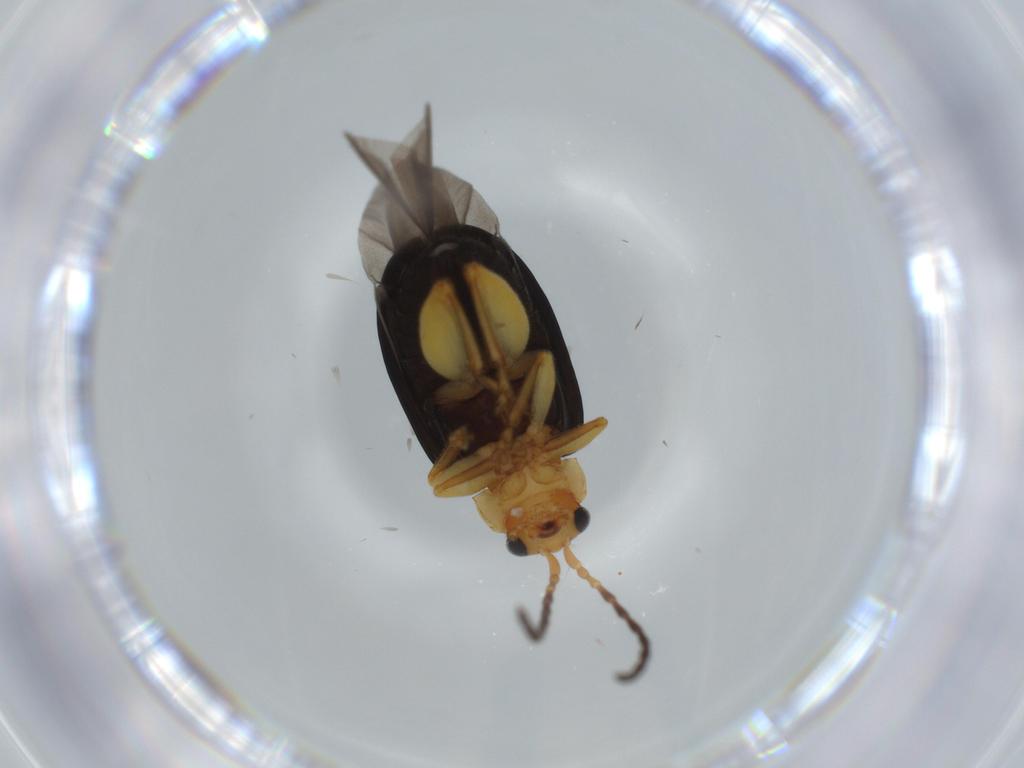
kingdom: Animalia
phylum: Arthropoda
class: Insecta
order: Coleoptera
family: Chrysomelidae
